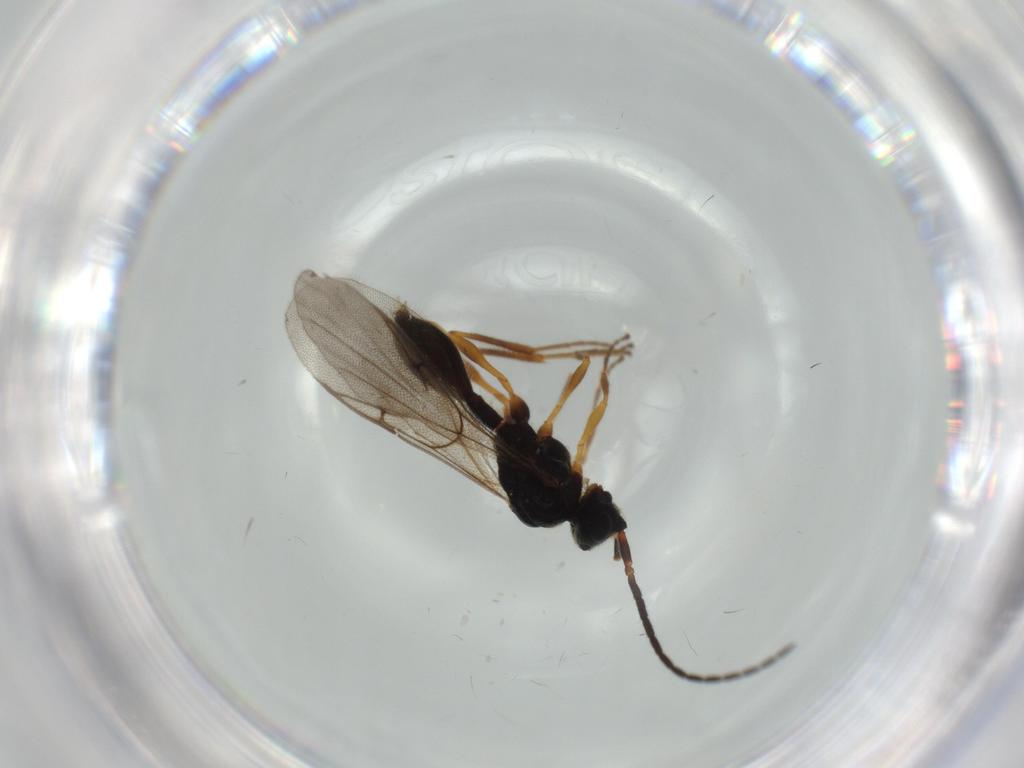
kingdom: Animalia
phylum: Arthropoda
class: Insecta
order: Hymenoptera
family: Diapriidae
